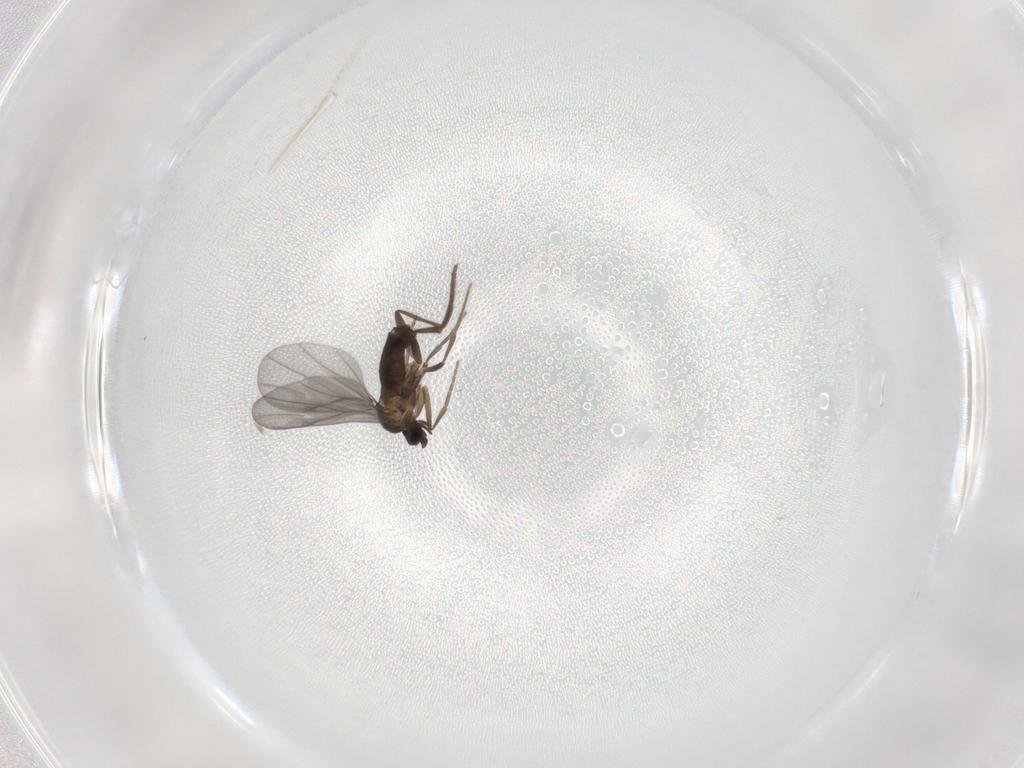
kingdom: Animalia
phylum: Arthropoda
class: Insecta
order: Diptera
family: Phoridae
